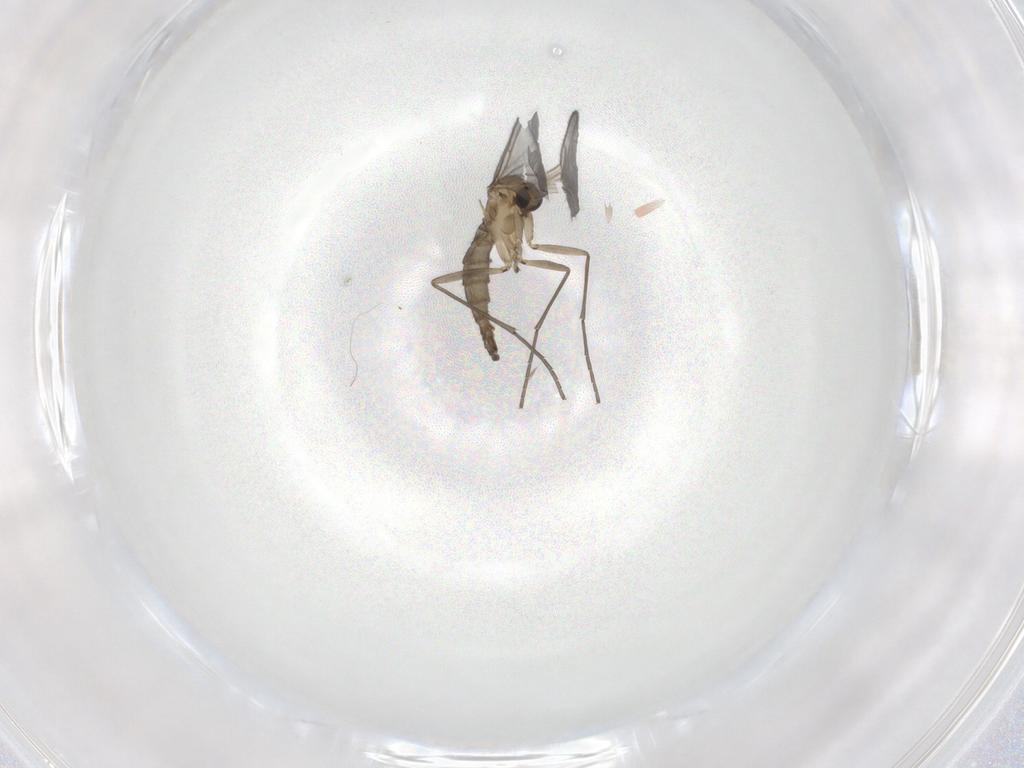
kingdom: Animalia
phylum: Arthropoda
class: Insecta
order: Diptera
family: Sciaridae
